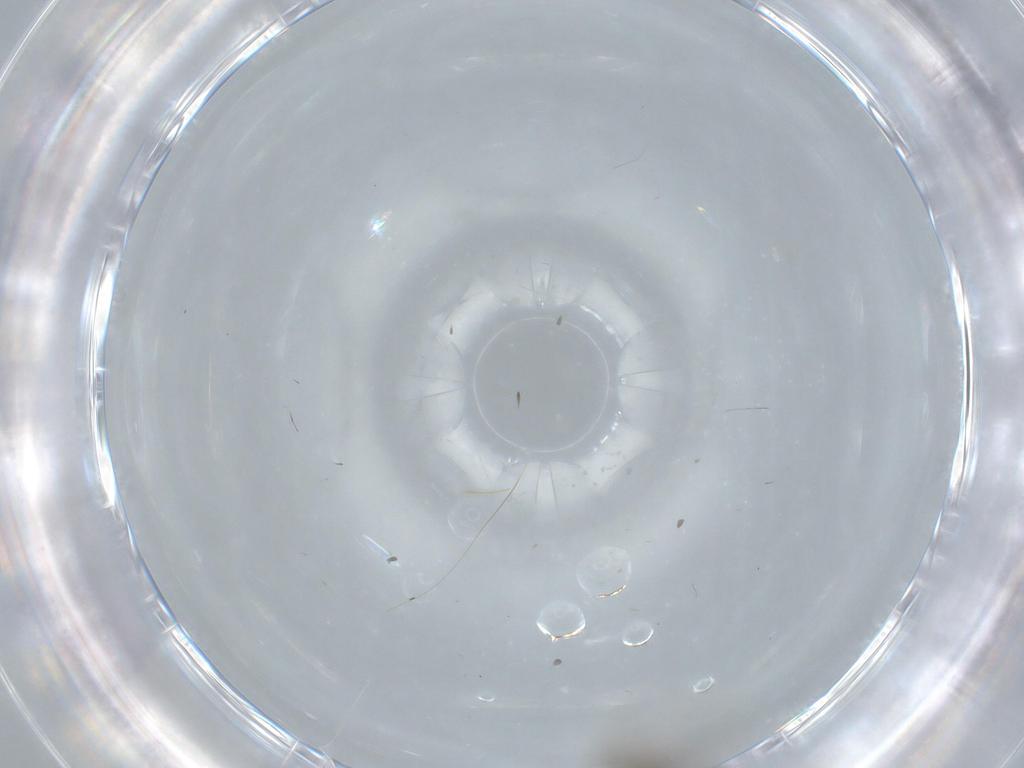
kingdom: Animalia
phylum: Arthropoda
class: Insecta
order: Hymenoptera
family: Platygastridae
